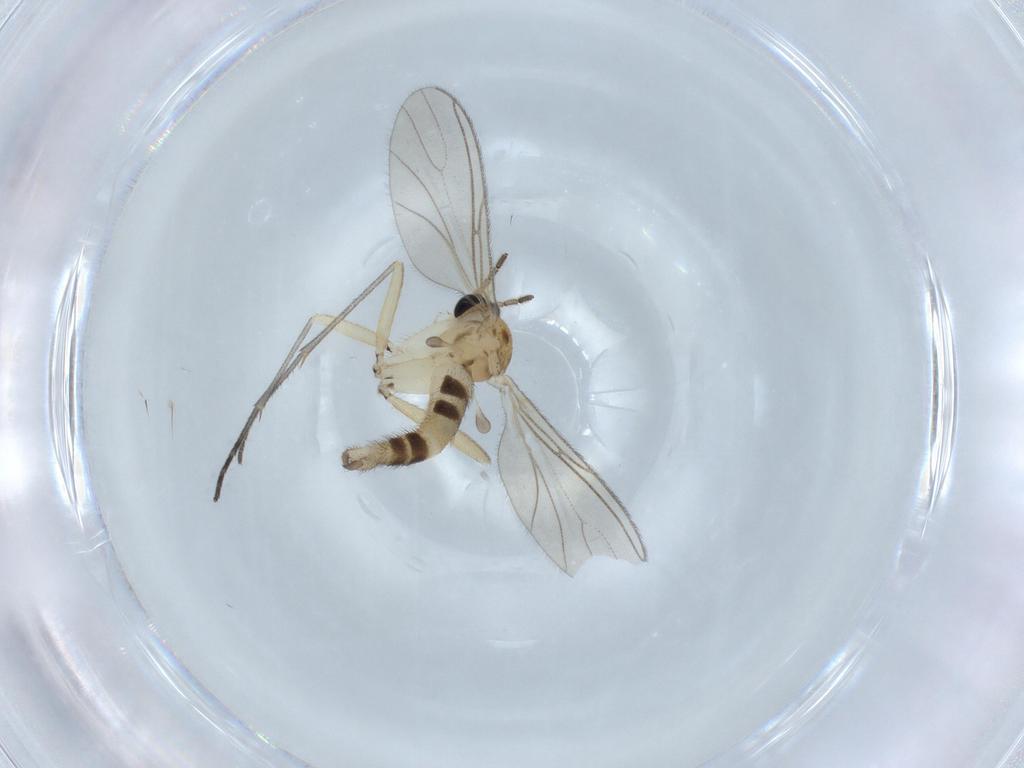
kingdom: Animalia
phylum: Arthropoda
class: Insecta
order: Diptera
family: Sciaridae
